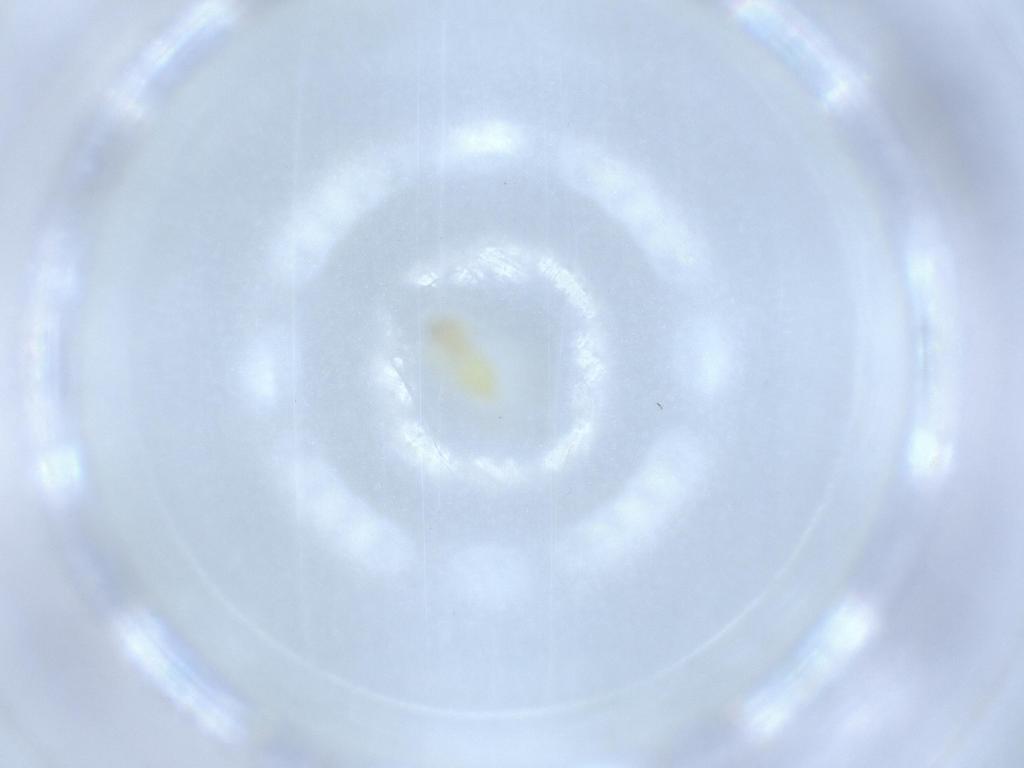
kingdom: Animalia
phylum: Arthropoda
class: Insecta
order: Hemiptera
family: Aleyrodidae
